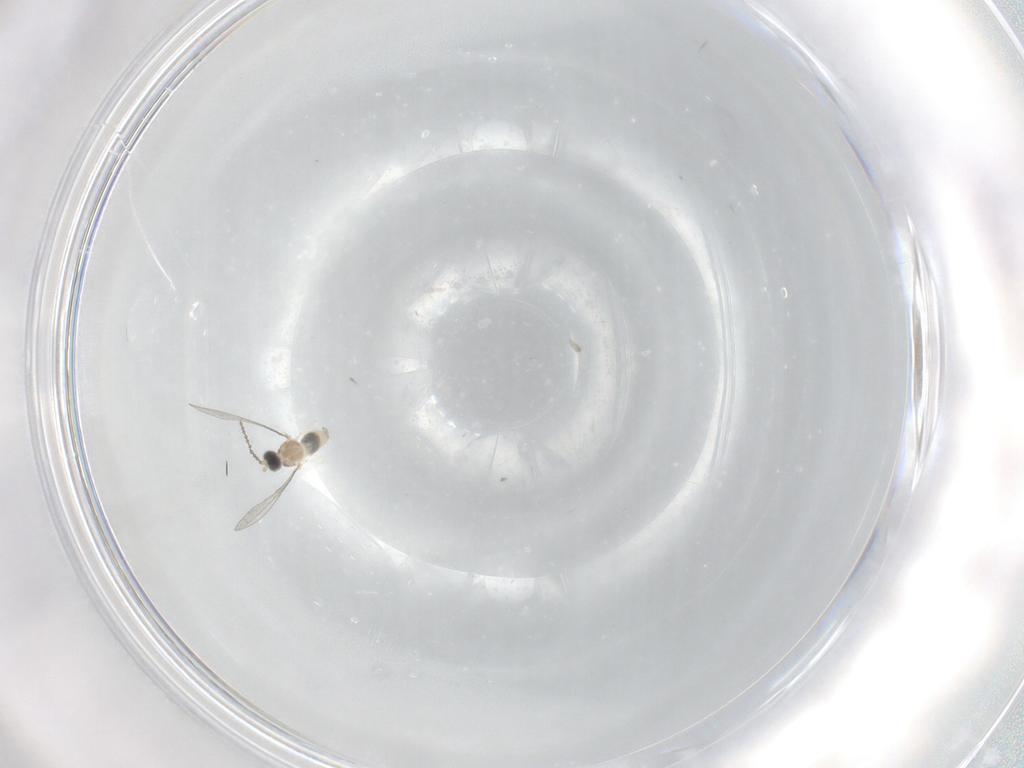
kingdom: Animalia
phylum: Arthropoda
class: Insecta
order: Diptera
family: Cecidomyiidae
